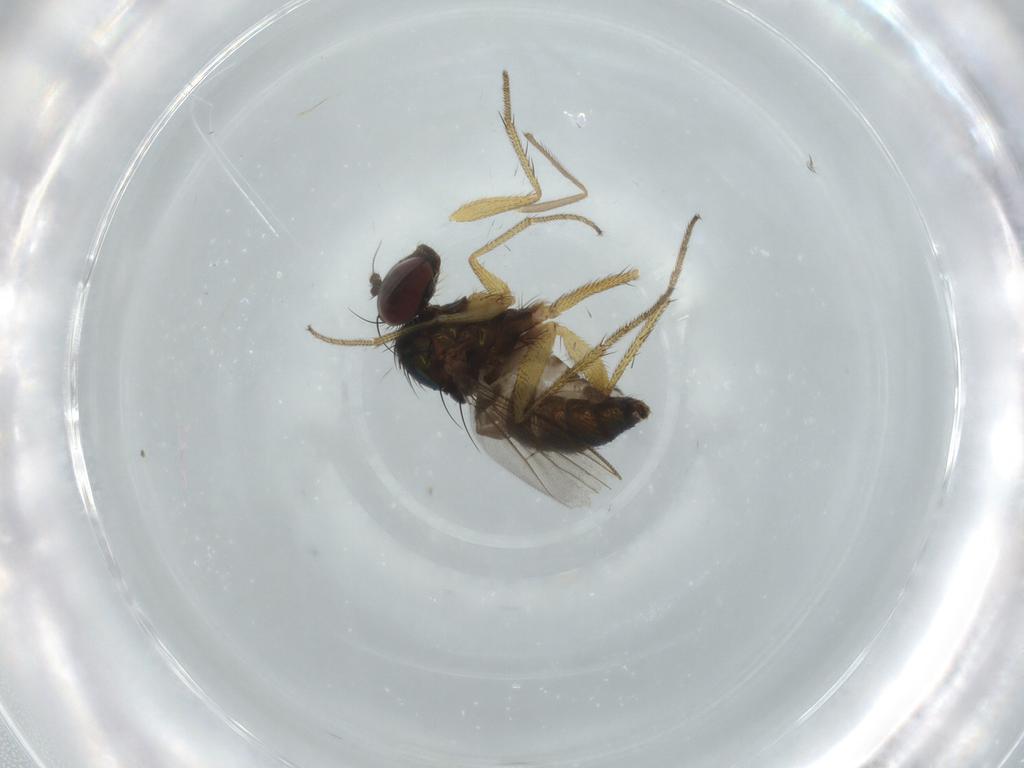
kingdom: Animalia
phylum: Arthropoda
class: Insecta
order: Diptera
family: Dolichopodidae
